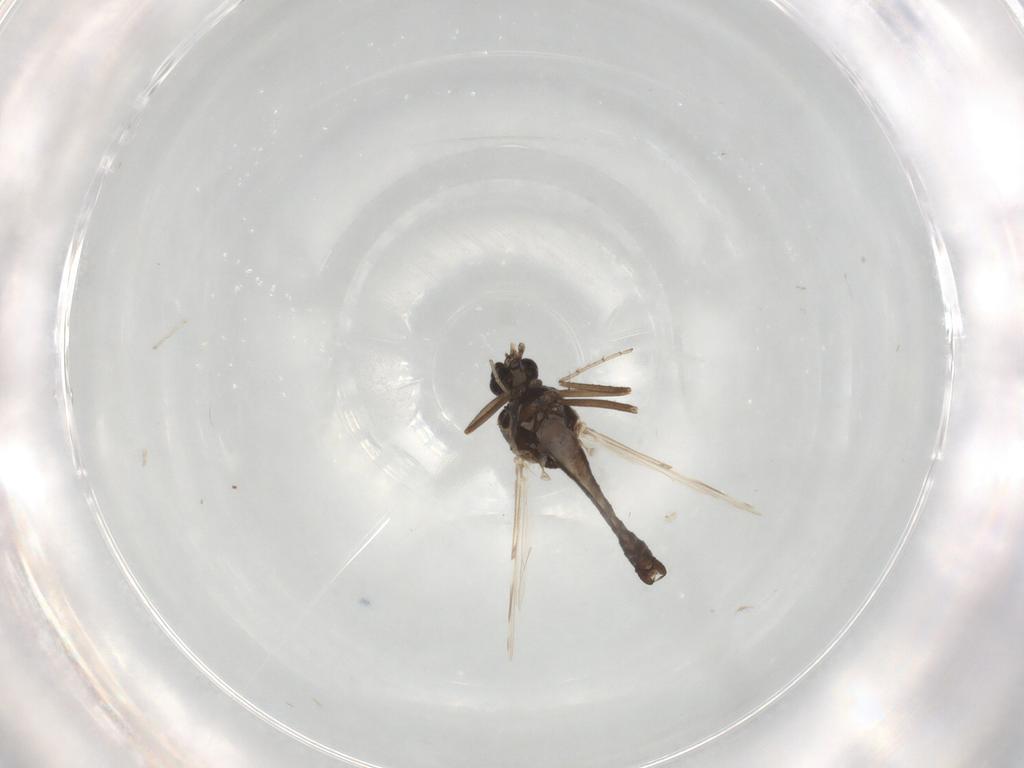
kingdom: Animalia
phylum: Arthropoda
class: Insecta
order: Diptera
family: Ceratopogonidae
